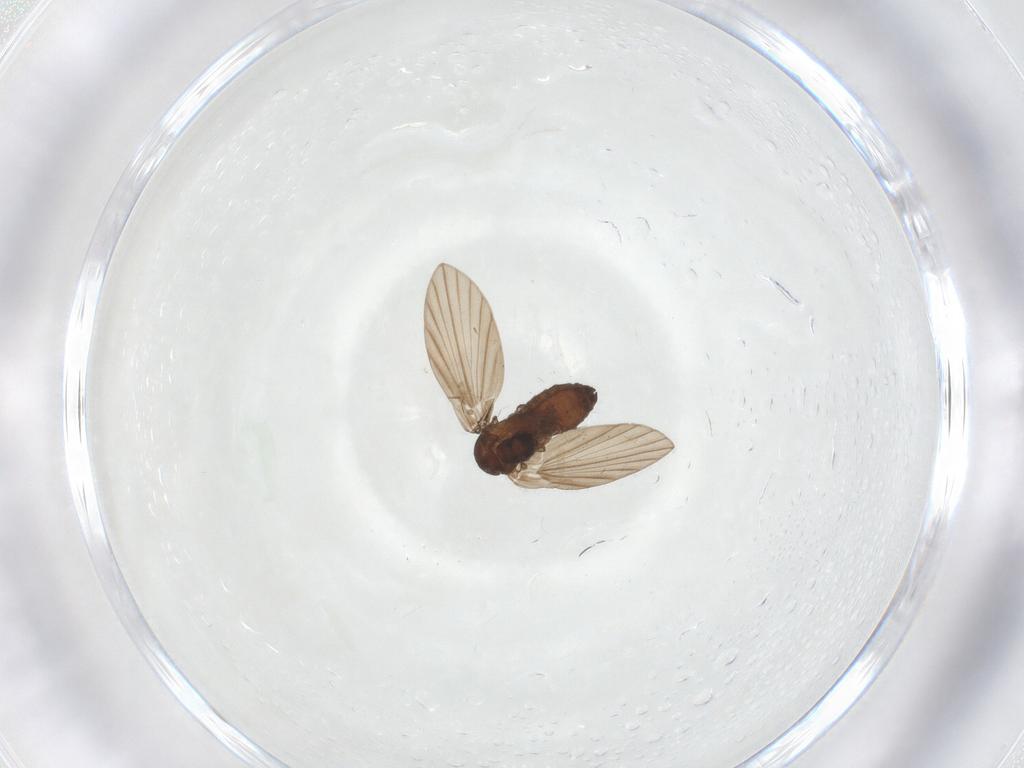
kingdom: Animalia
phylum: Arthropoda
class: Insecta
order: Diptera
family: Psychodidae
